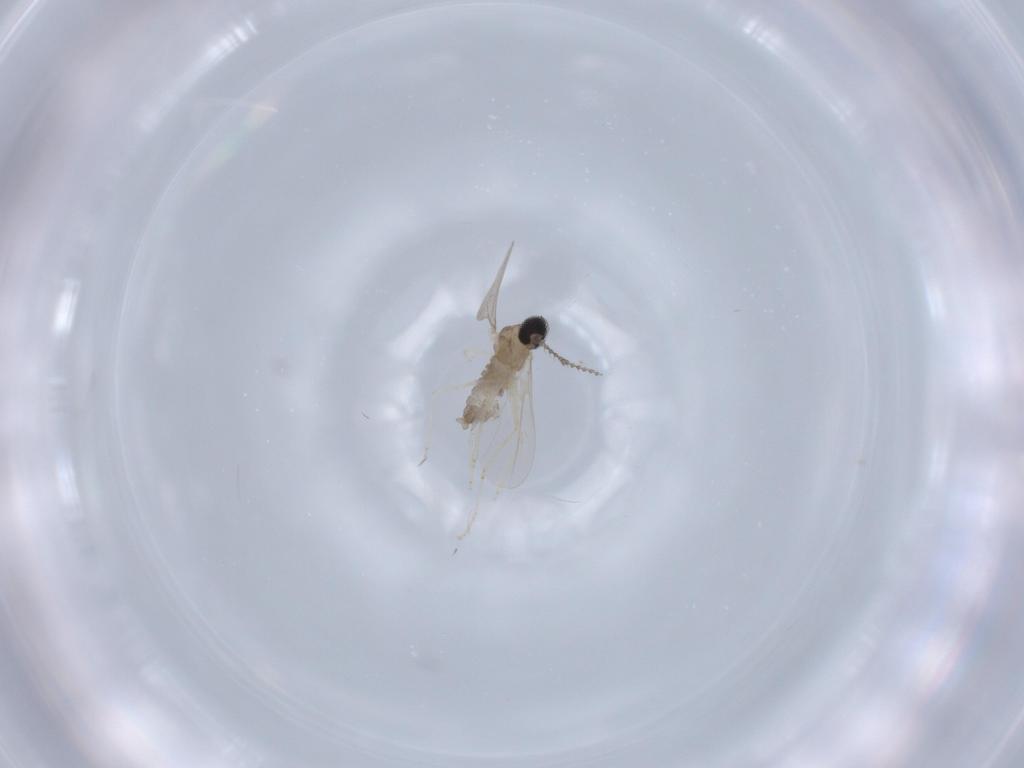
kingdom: Animalia
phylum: Arthropoda
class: Insecta
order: Diptera
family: Cecidomyiidae
